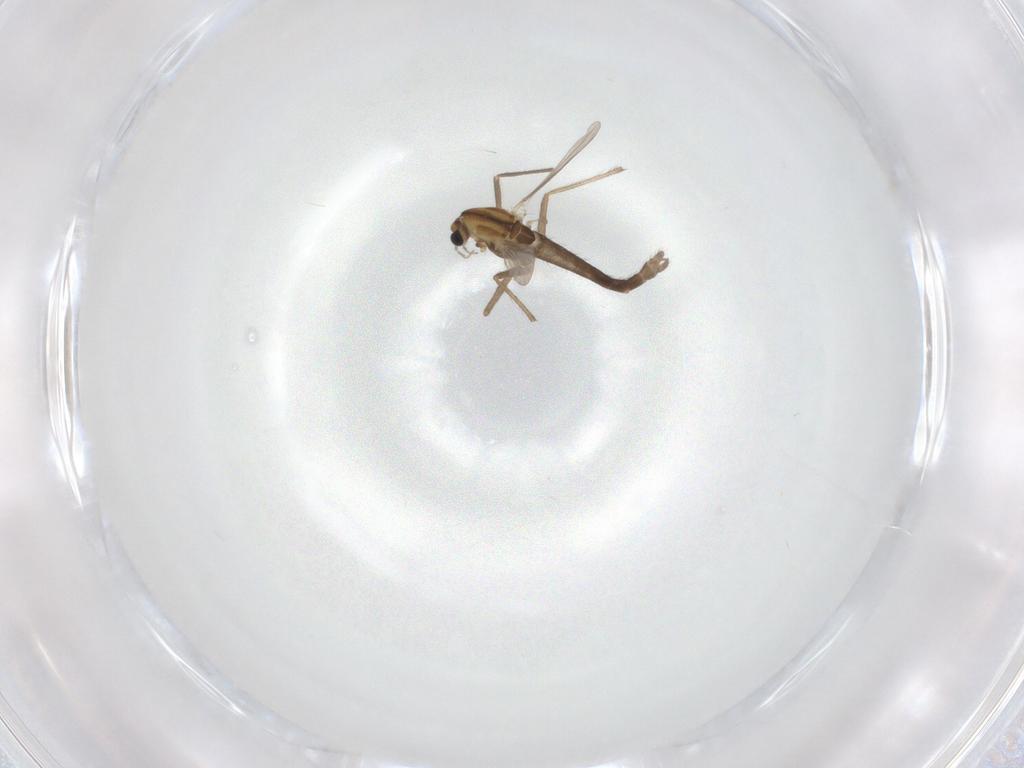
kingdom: Animalia
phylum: Arthropoda
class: Insecta
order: Diptera
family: Chironomidae
